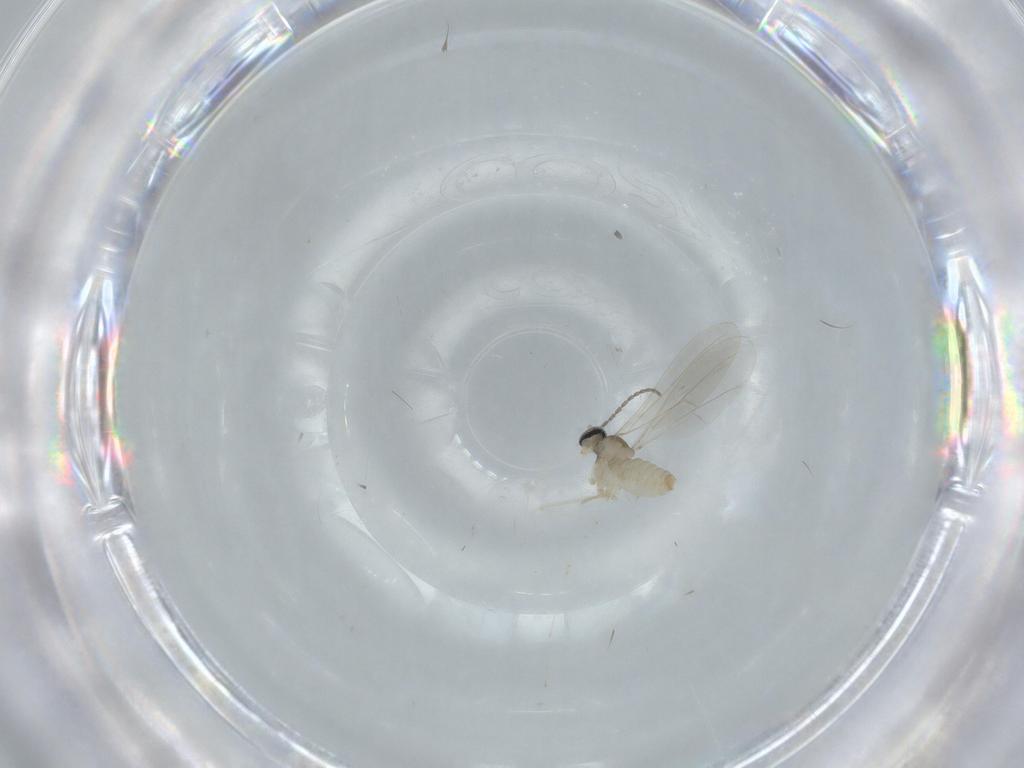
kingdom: Animalia
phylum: Arthropoda
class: Insecta
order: Diptera
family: Cecidomyiidae
